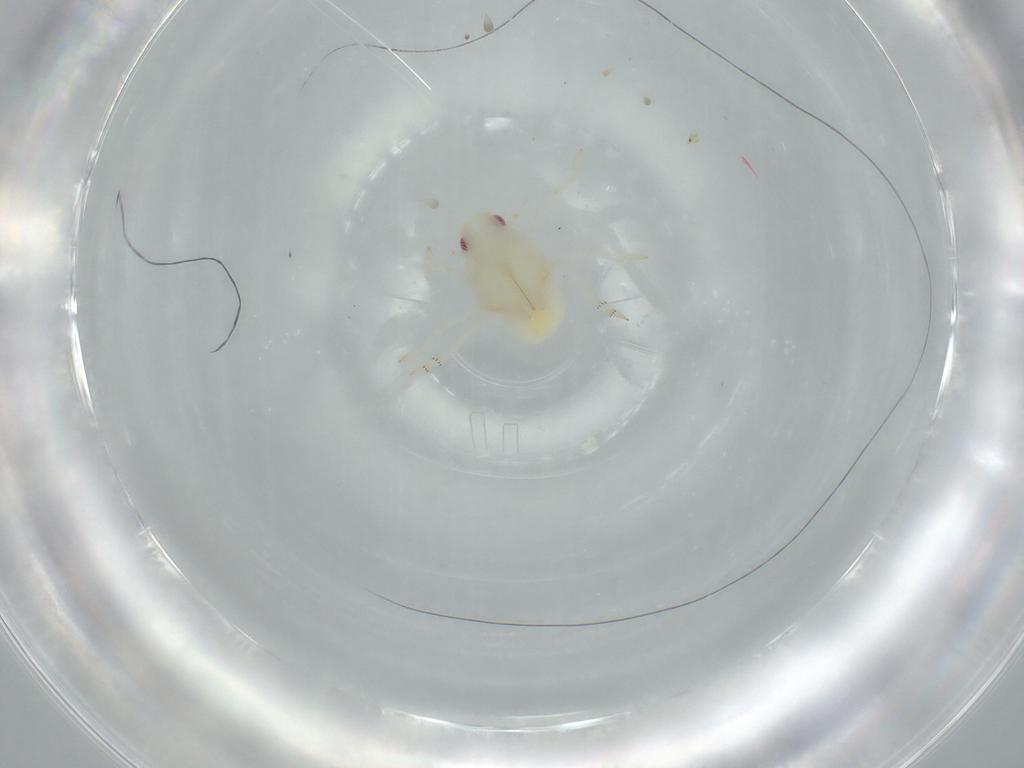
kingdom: Animalia
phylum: Arthropoda
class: Insecta
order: Hemiptera
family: Flatidae
